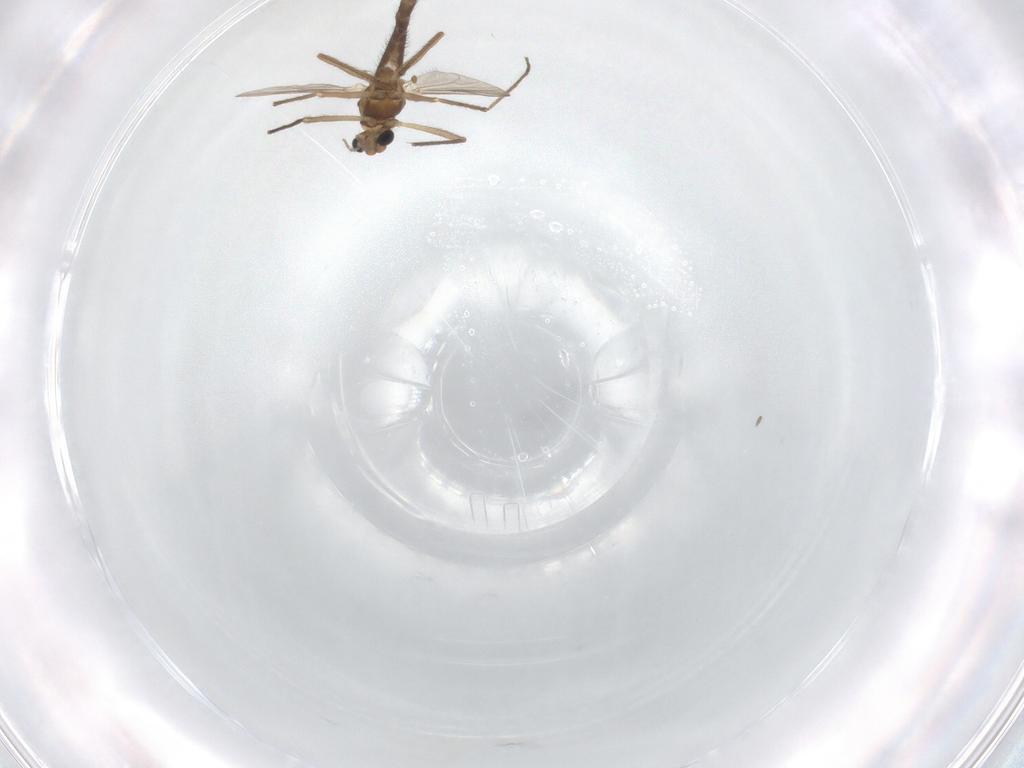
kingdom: Animalia
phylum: Arthropoda
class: Insecta
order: Diptera
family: Chironomidae
